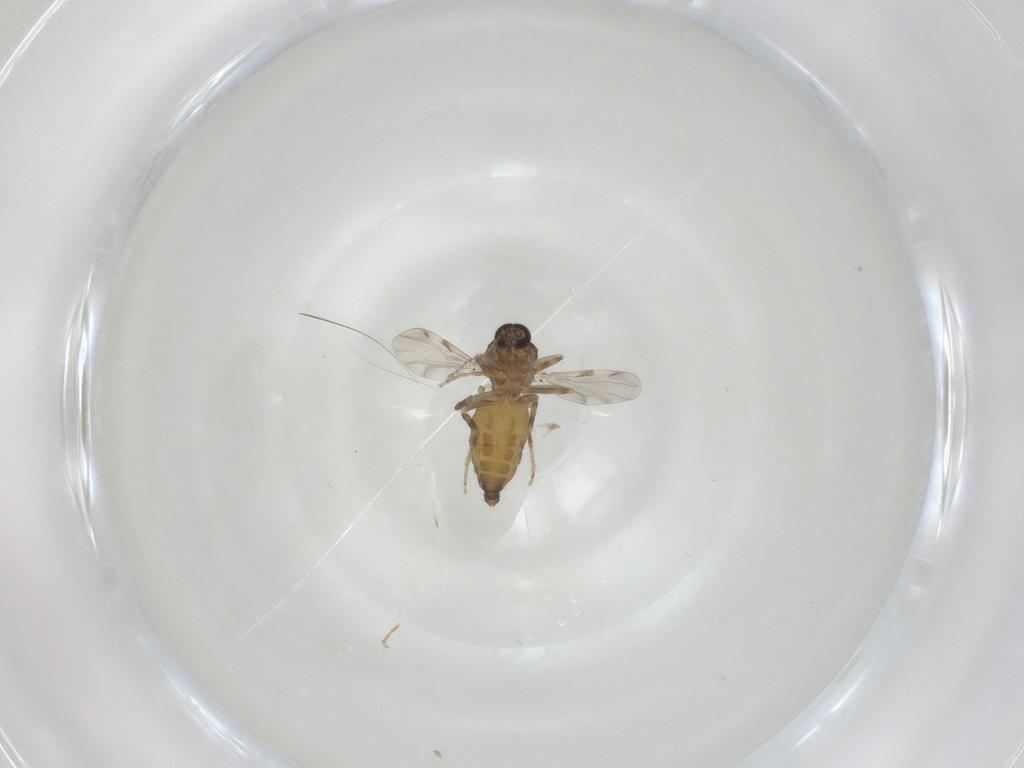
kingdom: Animalia
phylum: Arthropoda
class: Insecta
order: Diptera
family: Ceratopogonidae
